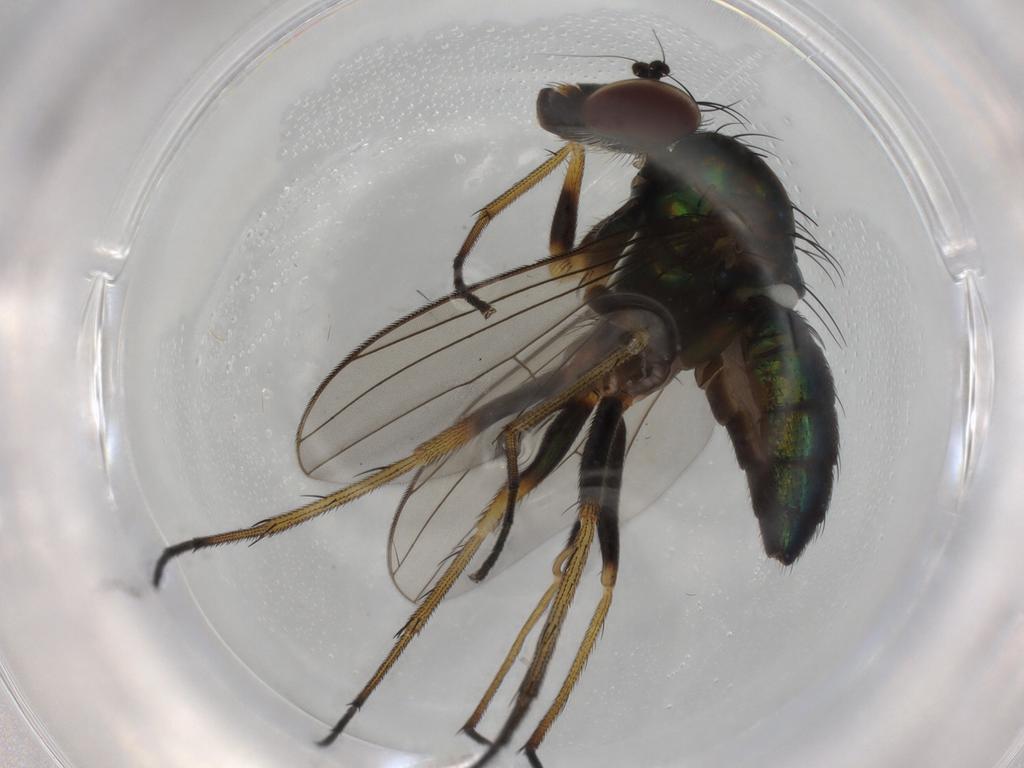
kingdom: Animalia
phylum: Arthropoda
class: Insecta
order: Diptera
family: Dolichopodidae
